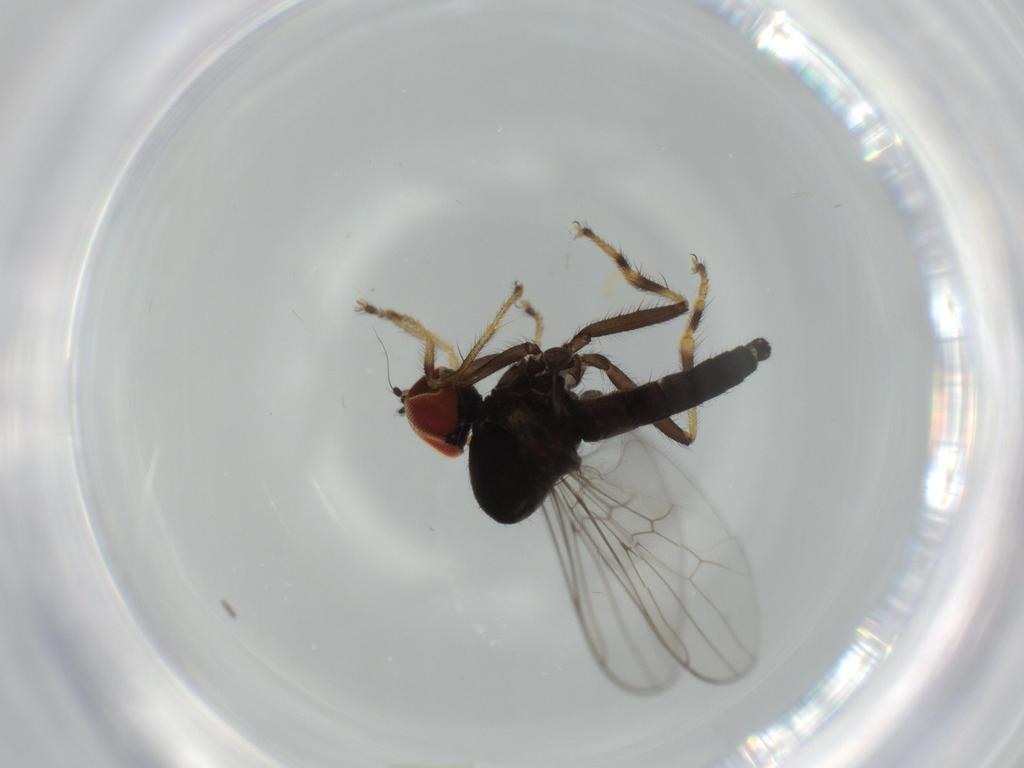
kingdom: Animalia
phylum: Arthropoda
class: Insecta
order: Diptera
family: Hybotidae
